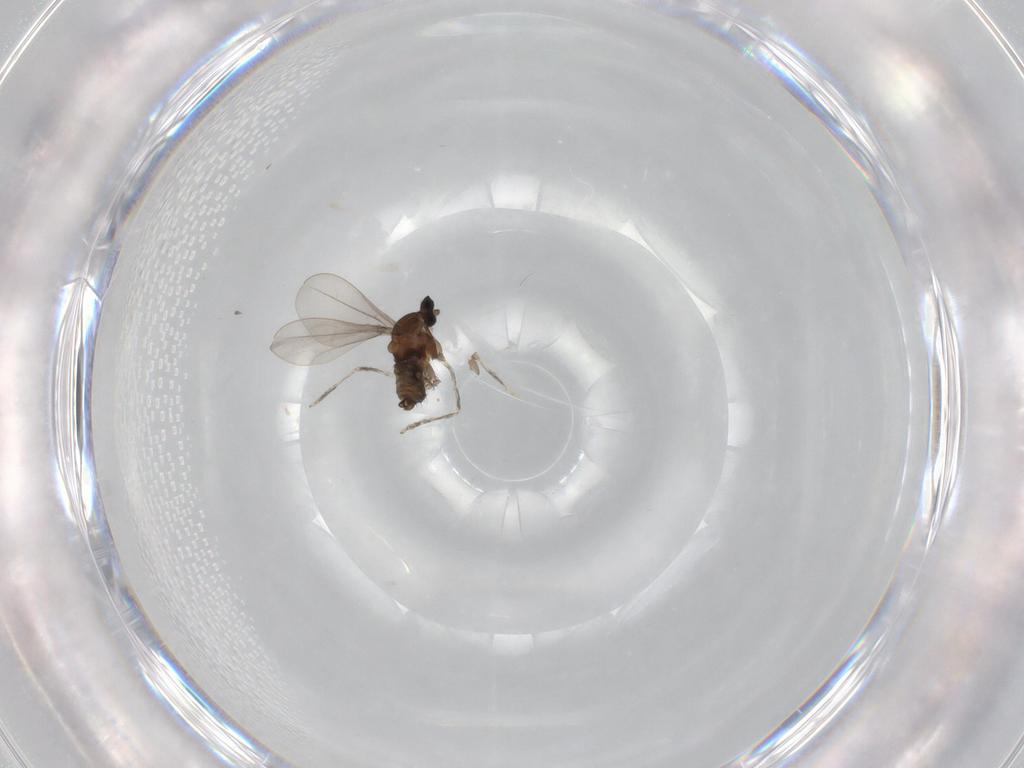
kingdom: Animalia
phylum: Arthropoda
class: Insecta
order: Diptera
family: Cecidomyiidae
